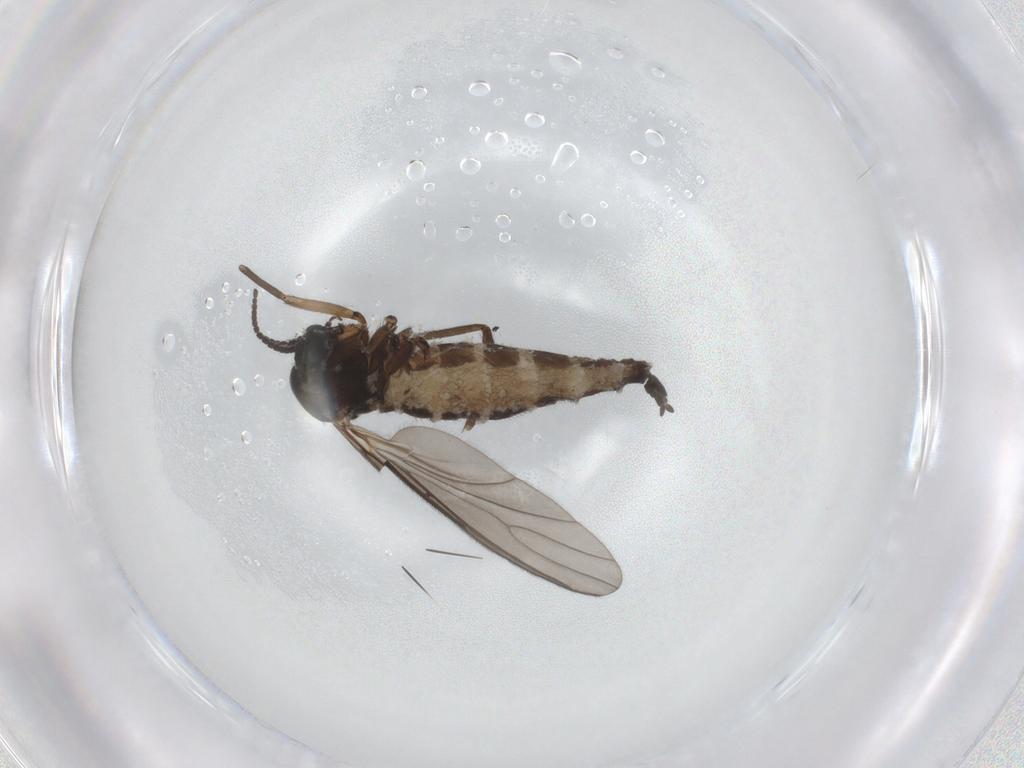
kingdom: Animalia
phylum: Arthropoda
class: Insecta
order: Diptera
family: Sciaridae
